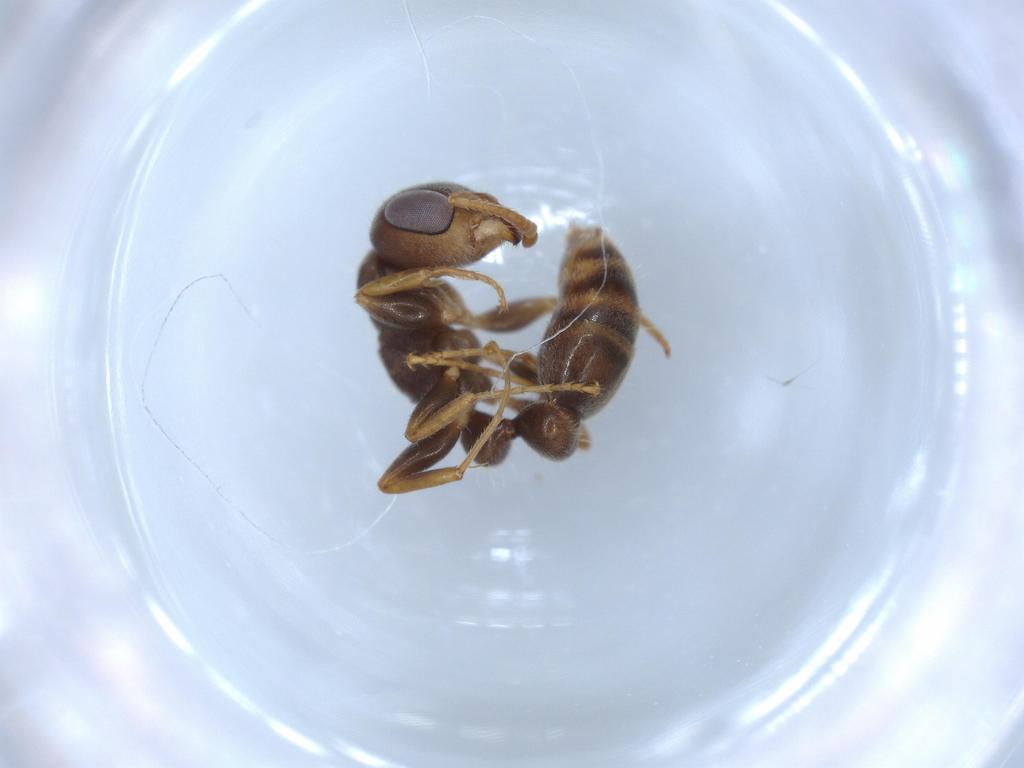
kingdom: Animalia
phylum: Arthropoda
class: Insecta
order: Hymenoptera
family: Formicidae
